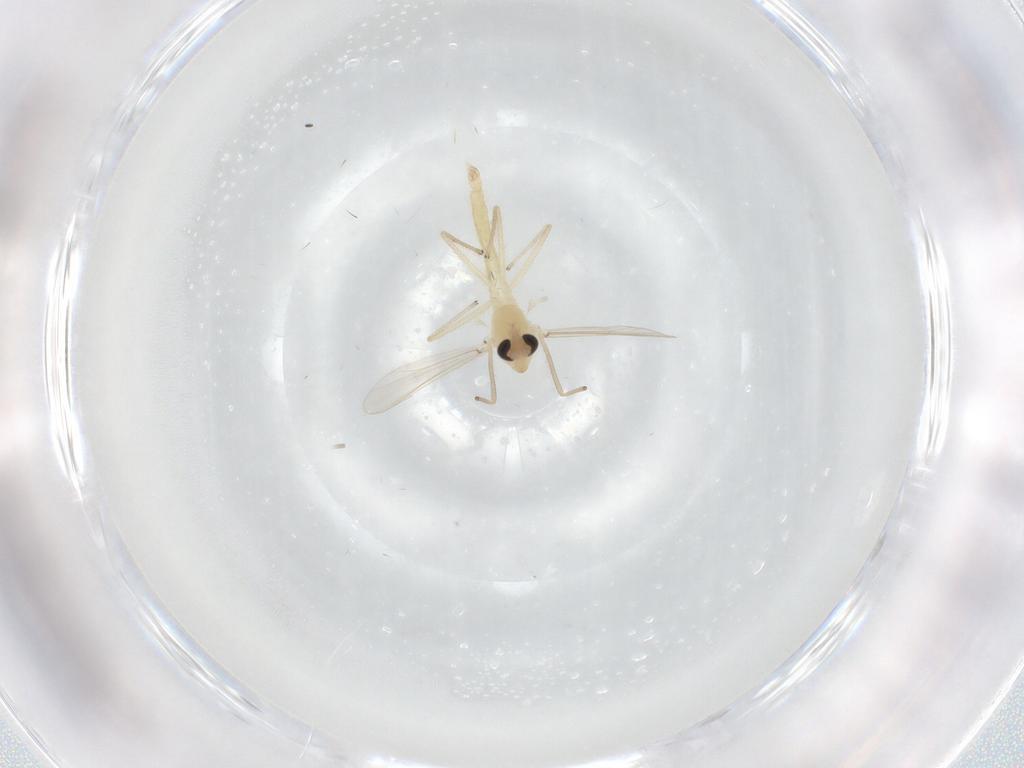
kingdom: Animalia
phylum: Arthropoda
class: Insecta
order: Diptera
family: Chironomidae
